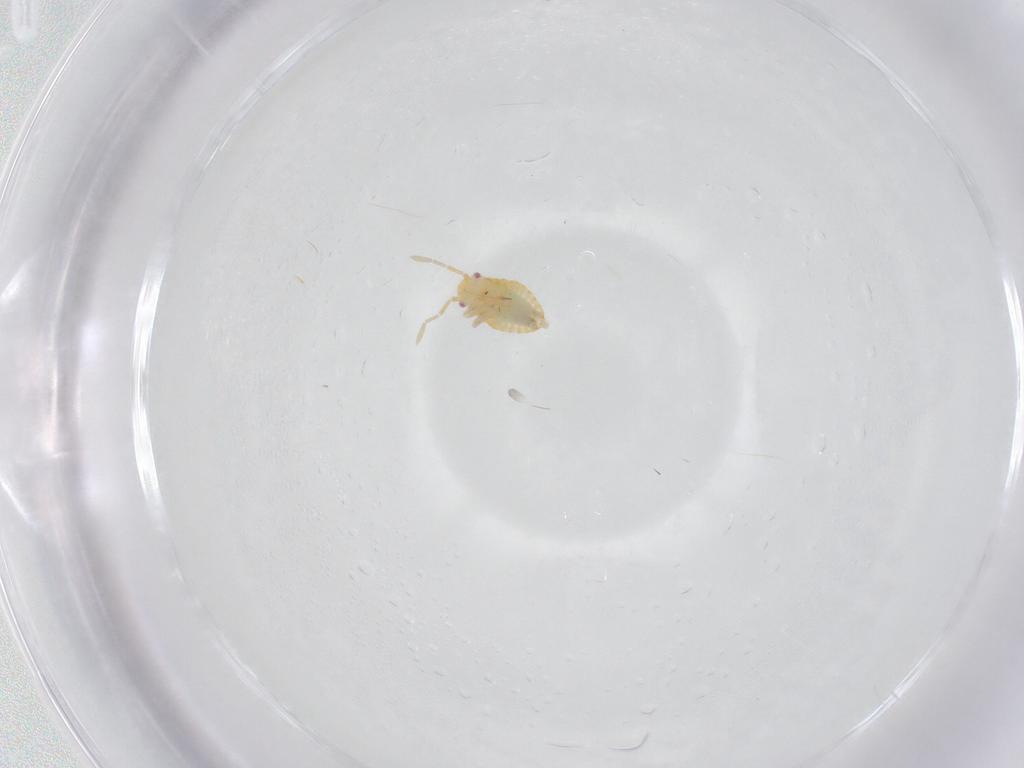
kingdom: Animalia
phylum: Arthropoda
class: Insecta
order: Hemiptera
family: Miridae
